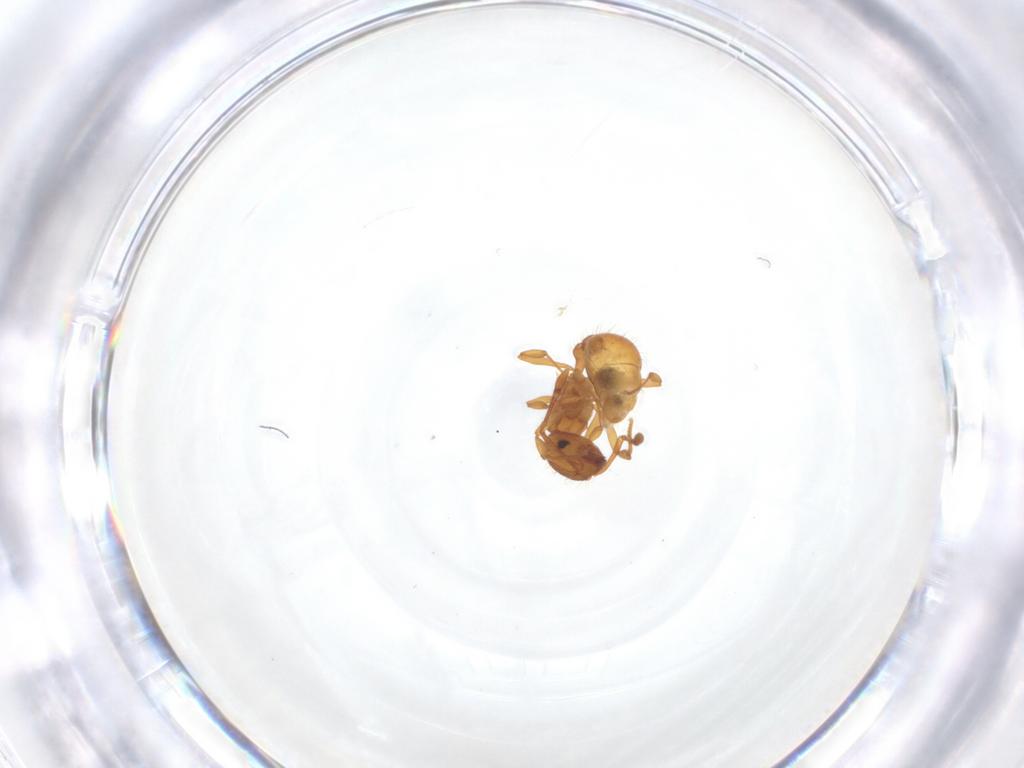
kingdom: Animalia
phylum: Arthropoda
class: Insecta
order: Hymenoptera
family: Formicidae
